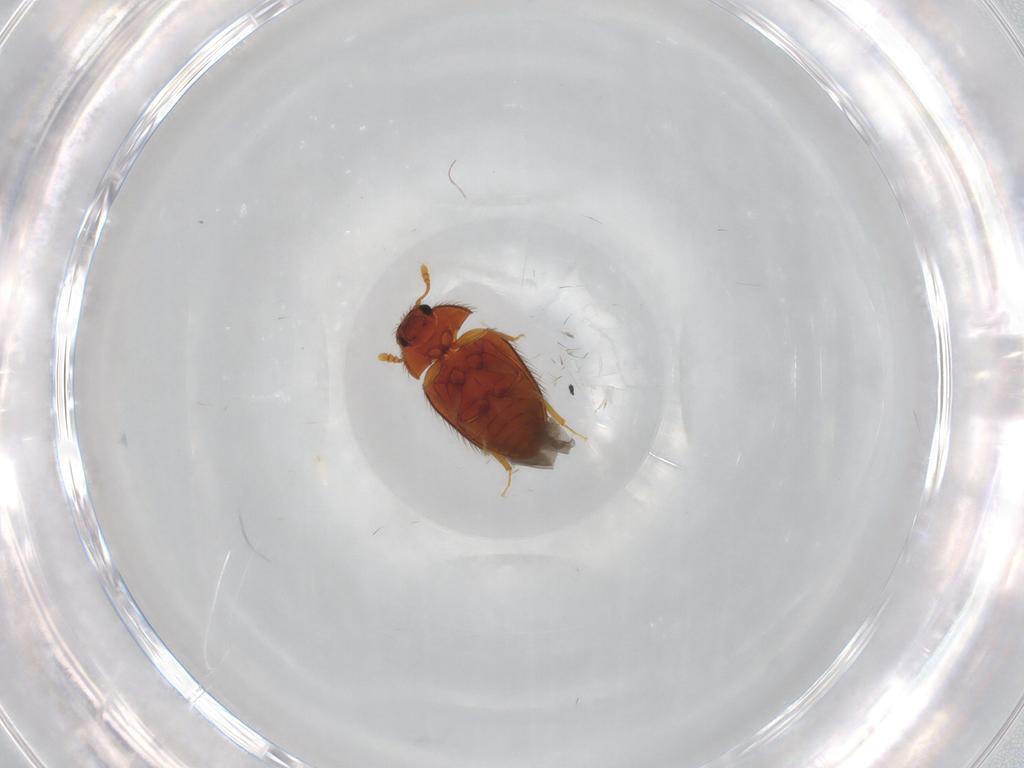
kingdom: Animalia
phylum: Arthropoda
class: Insecta
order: Coleoptera
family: Biphyllidae
